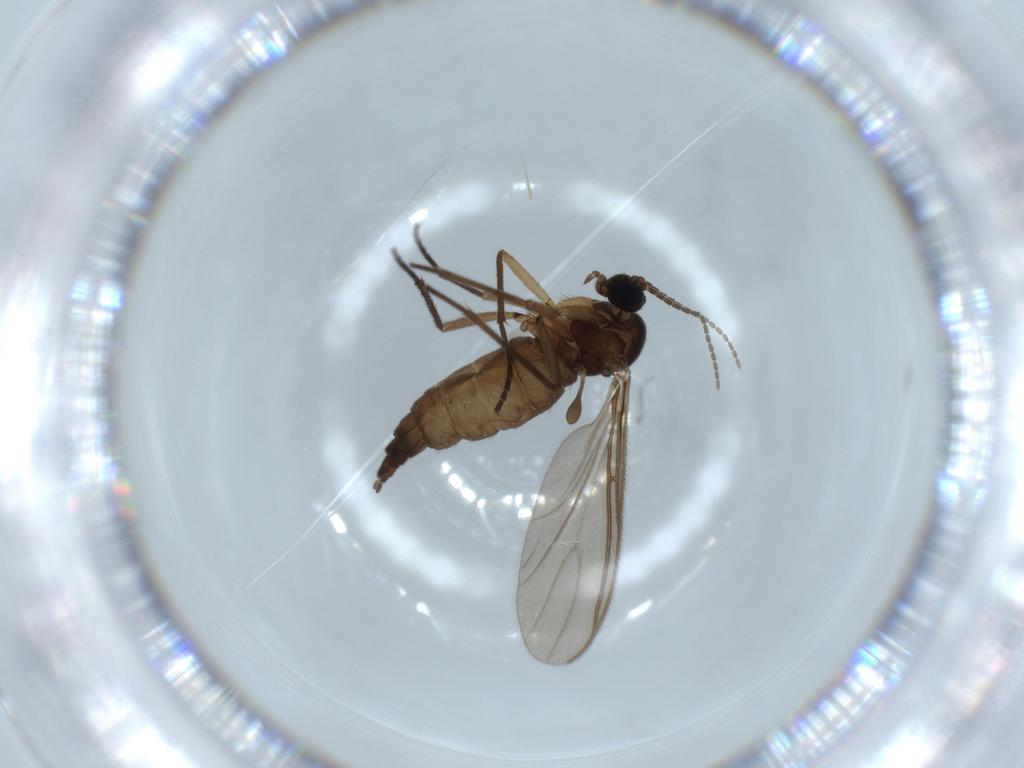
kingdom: Animalia
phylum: Arthropoda
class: Insecta
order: Diptera
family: Sciaridae
